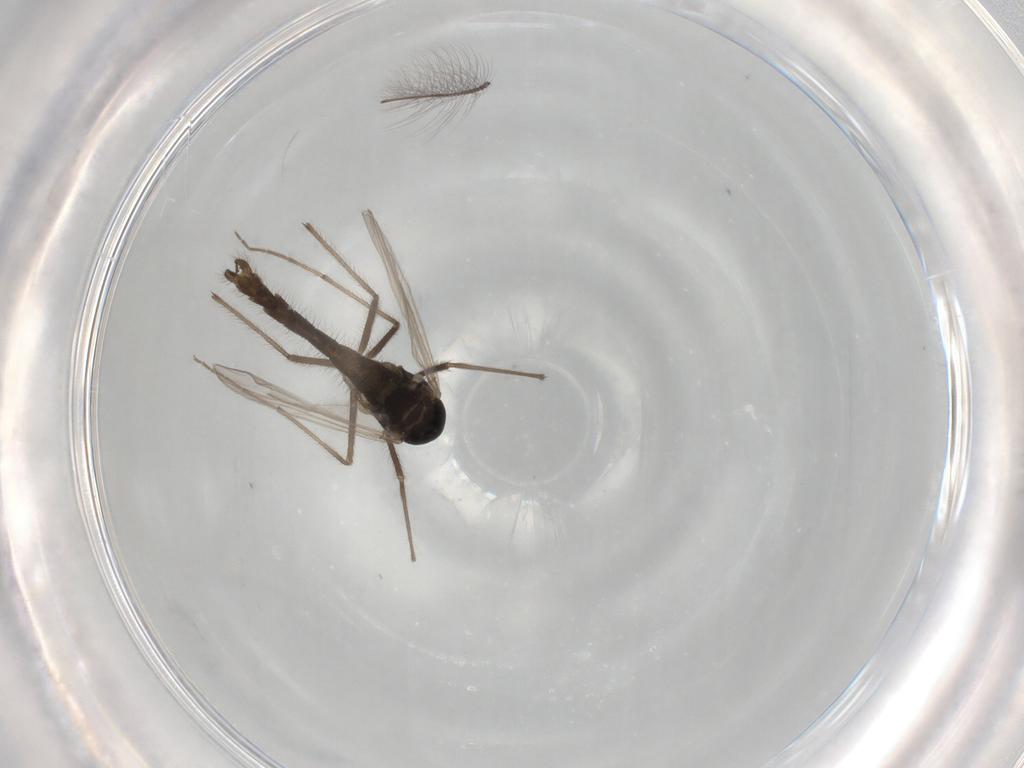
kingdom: Animalia
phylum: Arthropoda
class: Insecta
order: Diptera
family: Chironomidae
